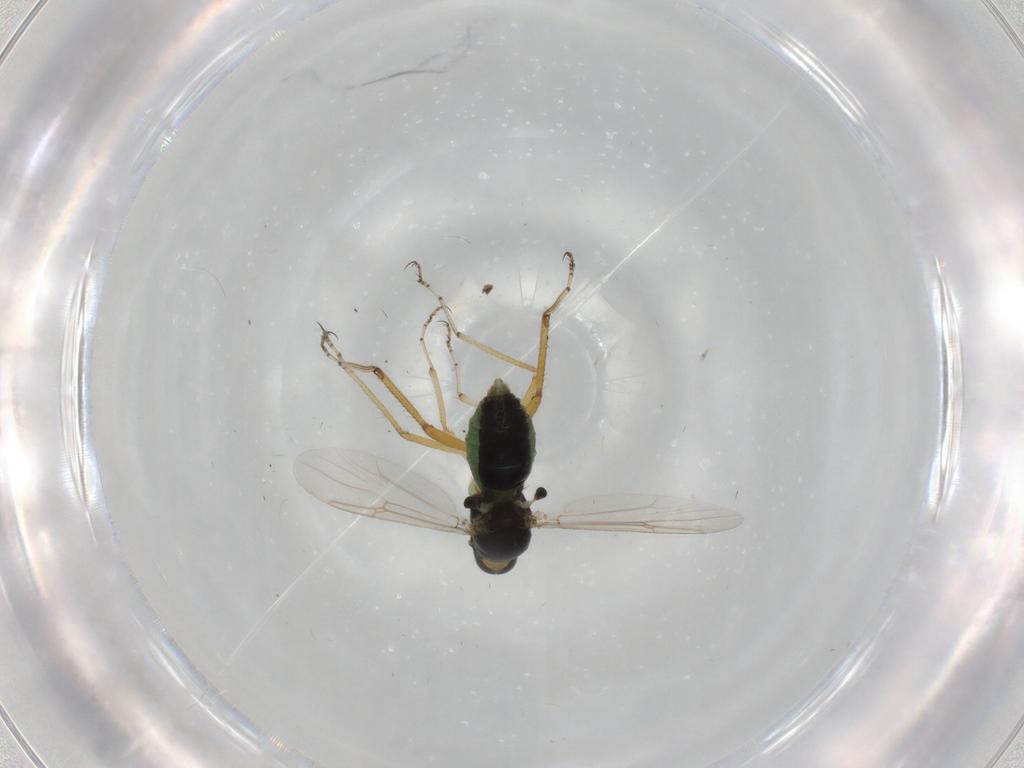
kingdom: Animalia
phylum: Arthropoda
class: Insecta
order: Diptera
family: Ceratopogonidae
